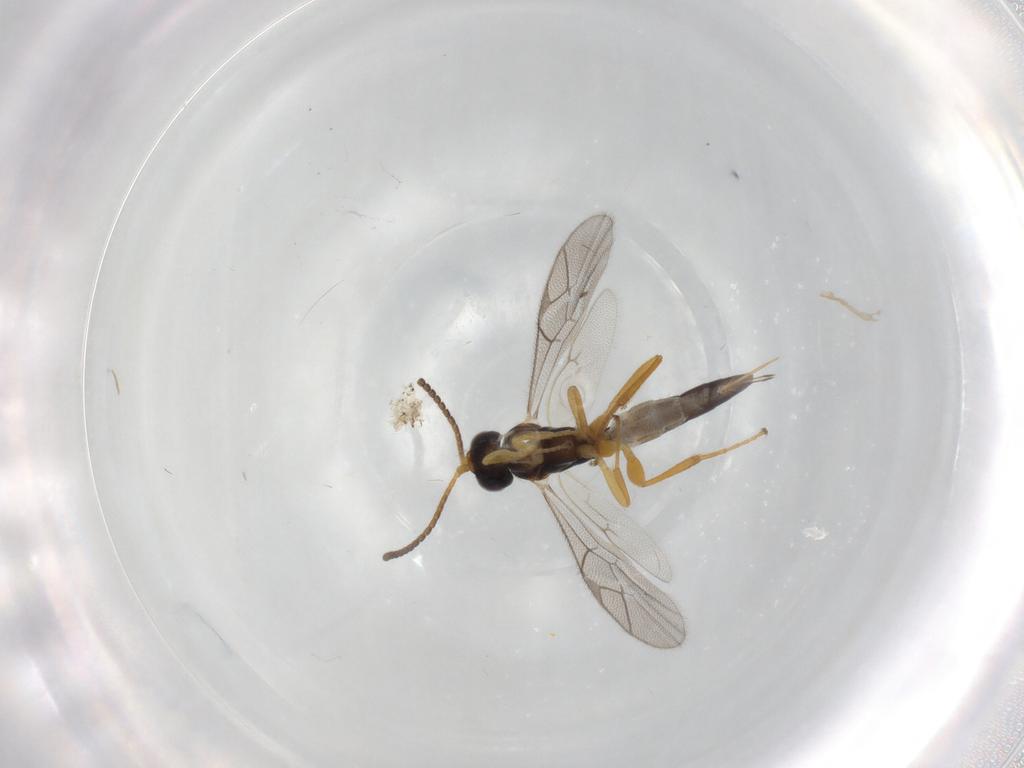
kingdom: Animalia
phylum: Arthropoda
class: Insecta
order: Hymenoptera
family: Ichneumonidae
